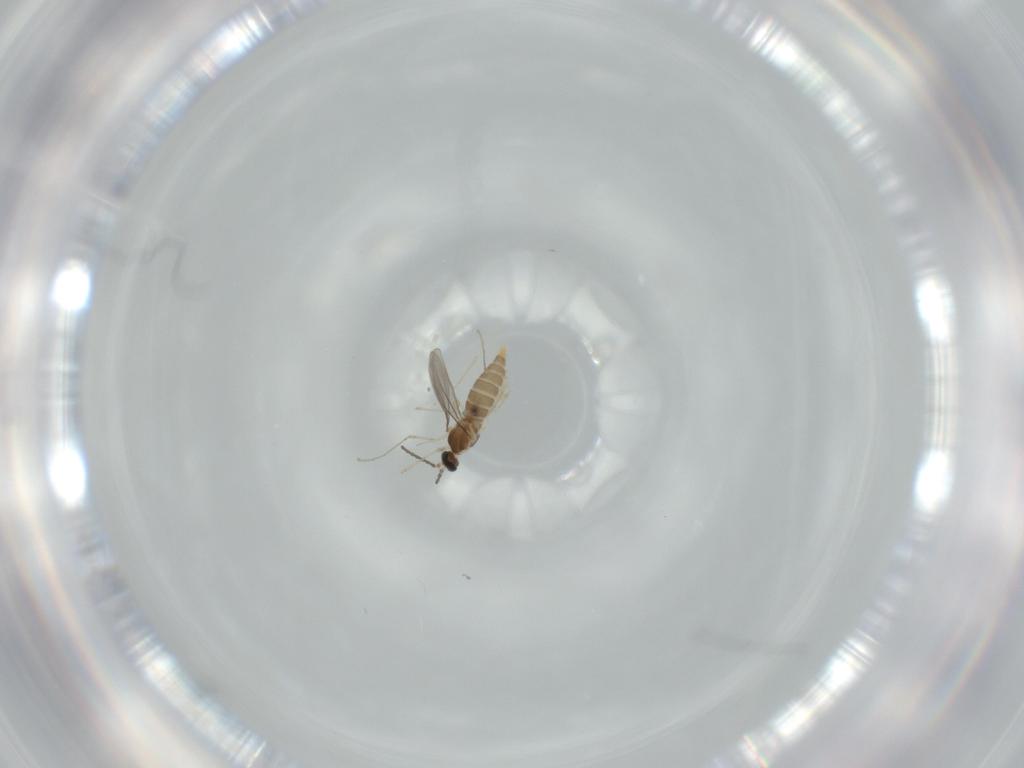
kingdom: Animalia
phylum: Arthropoda
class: Insecta
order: Diptera
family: Cecidomyiidae
